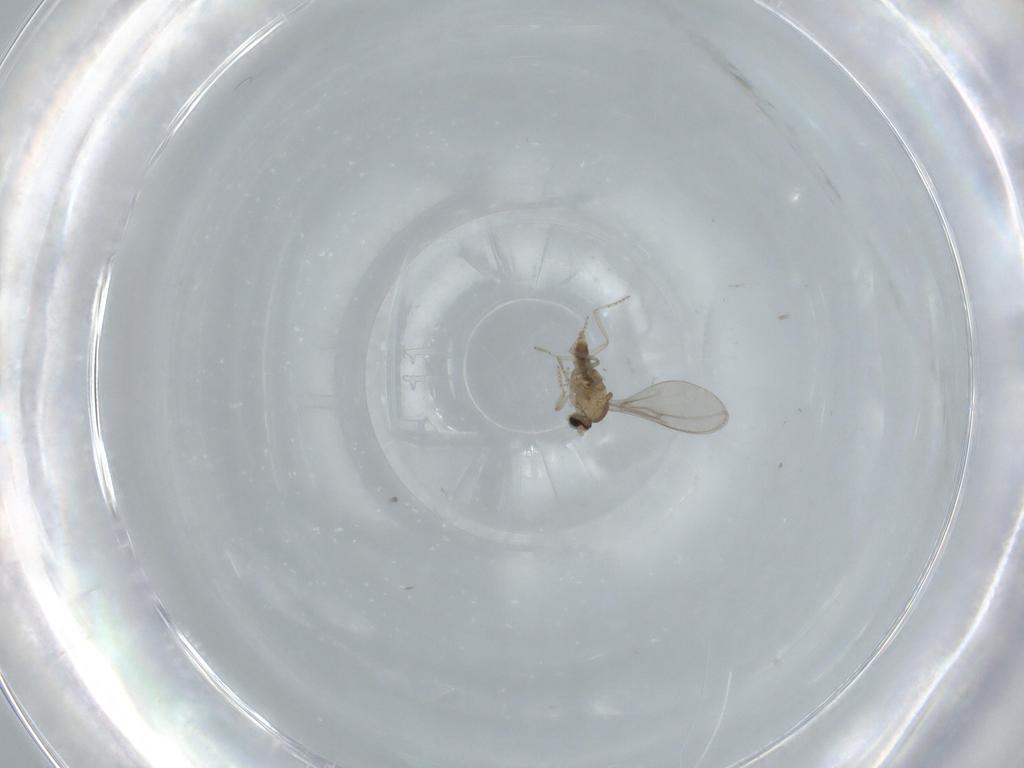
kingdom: Animalia
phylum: Arthropoda
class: Insecta
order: Diptera
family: Cecidomyiidae
